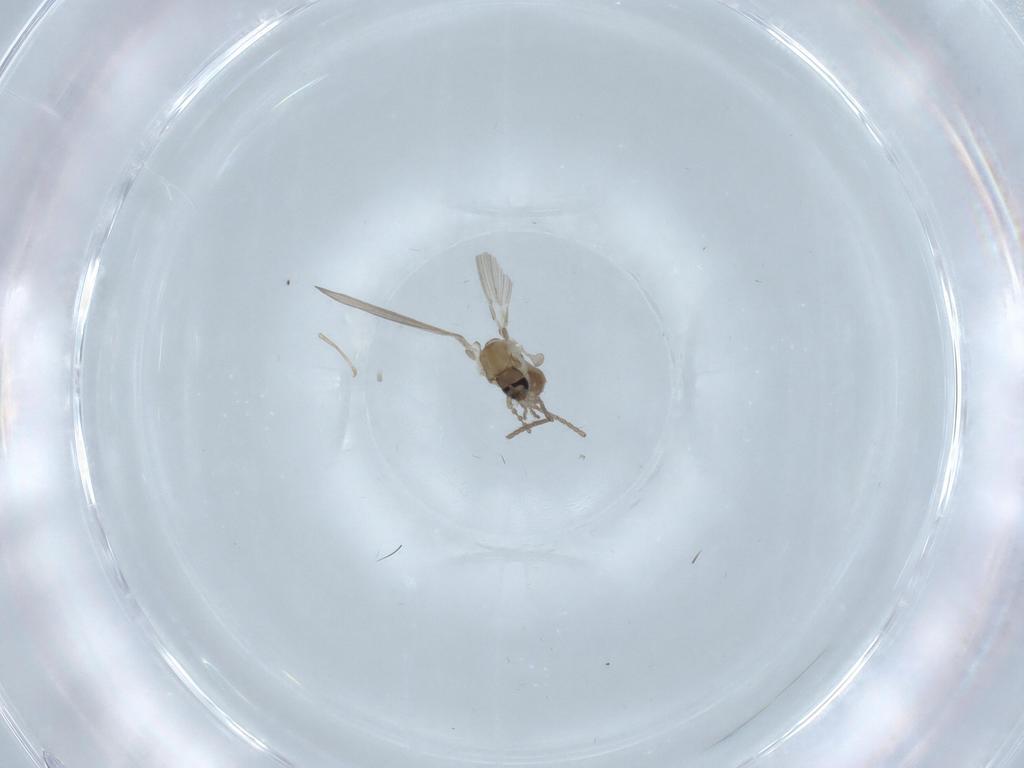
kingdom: Animalia
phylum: Arthropoda
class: Insecta
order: Diptera
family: Psychodidae
